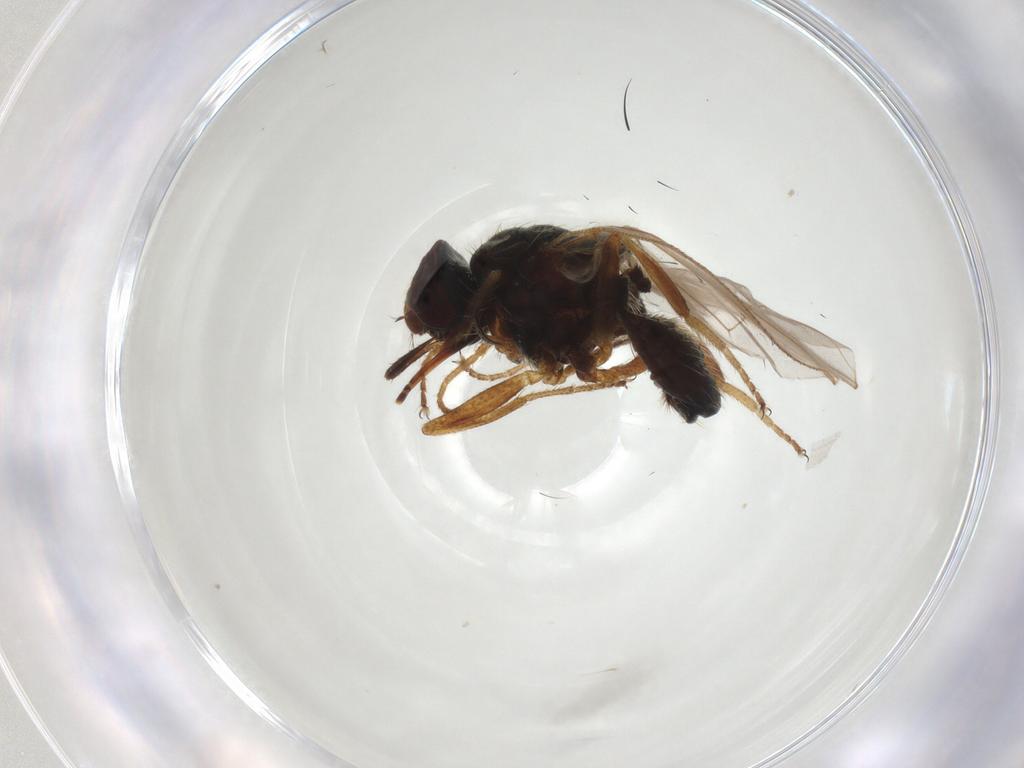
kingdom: Animalia
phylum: Arthropoda
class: Insecta
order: Diptera
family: Muscidae
